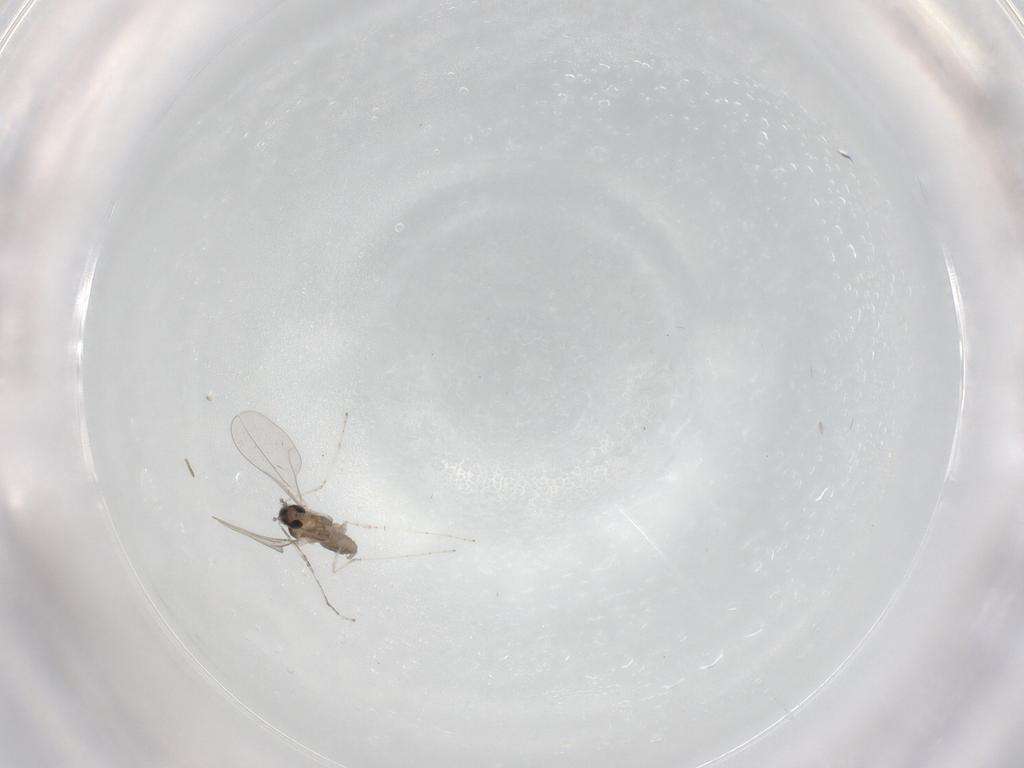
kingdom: Animalia
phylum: Arthropoda
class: Insecta
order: Diptera
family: Cecidomyiidae
